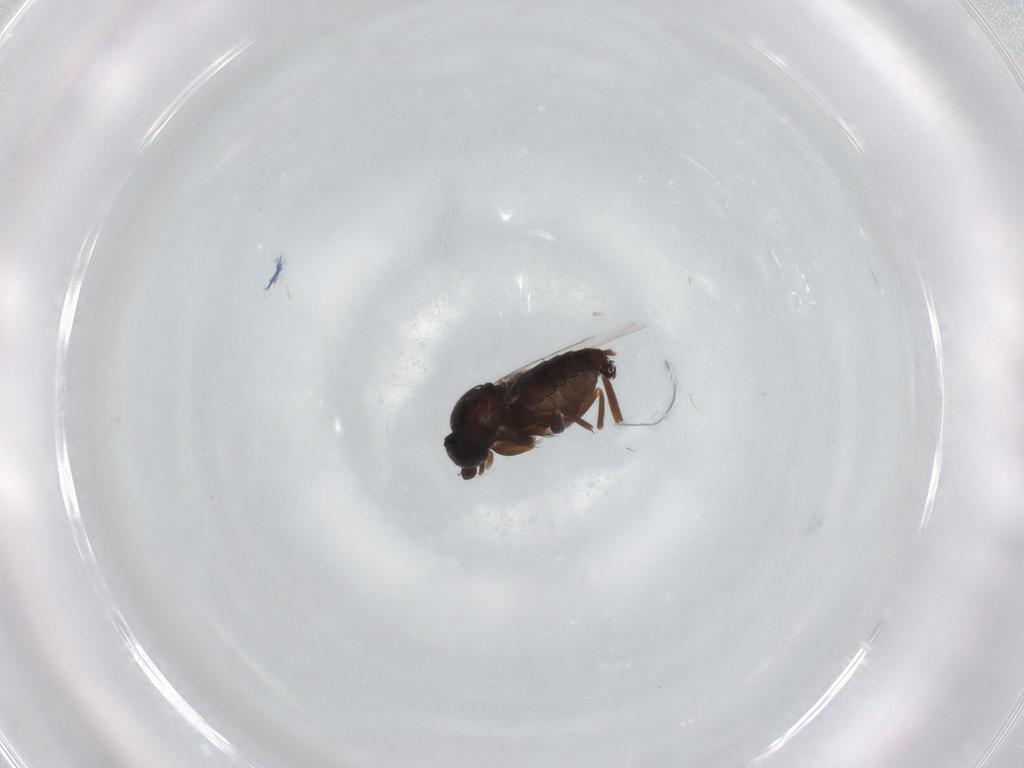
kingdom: Animalia
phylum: Arthropoda
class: Insecta
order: Diptera
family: Phoridae
